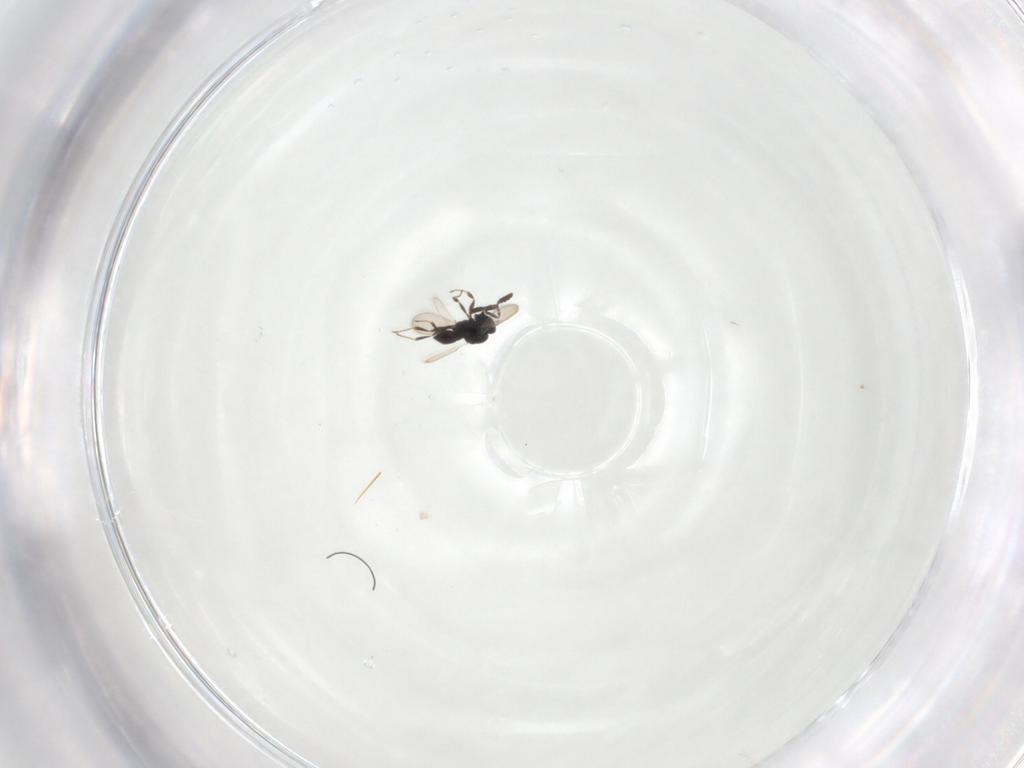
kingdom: Animalia
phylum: Arthropoda
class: Insecta
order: Hymenoptera
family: Scelionidae
